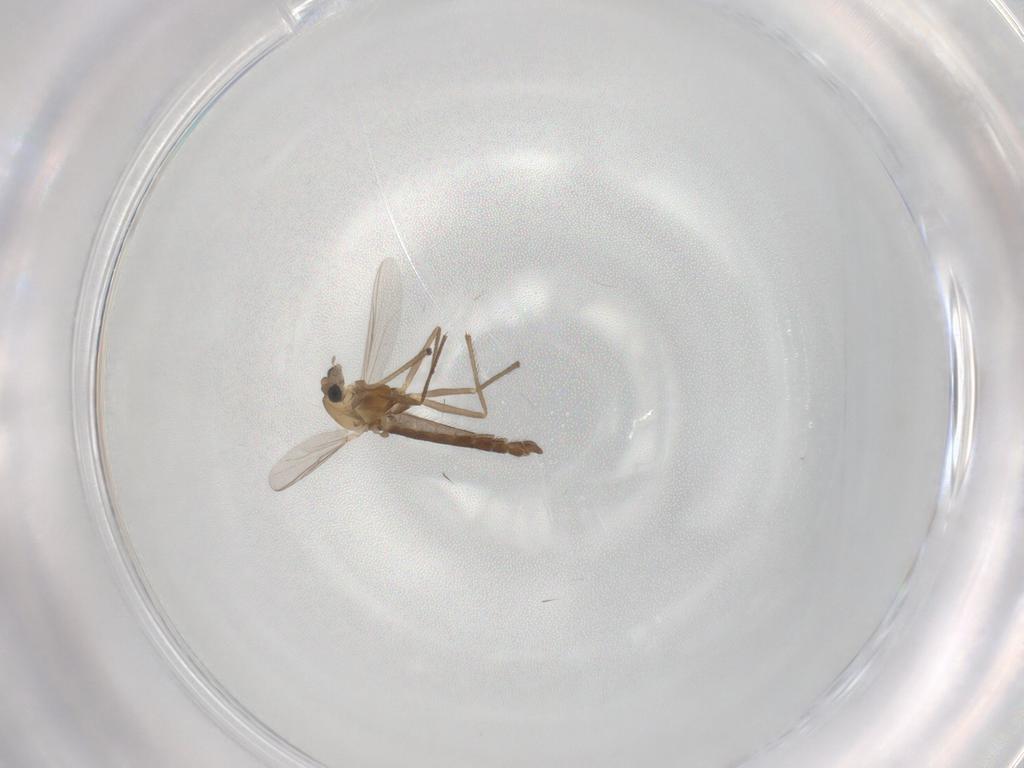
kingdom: Animalia
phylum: Arthropoda
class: Insecta
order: Diptera
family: Chironomidae
